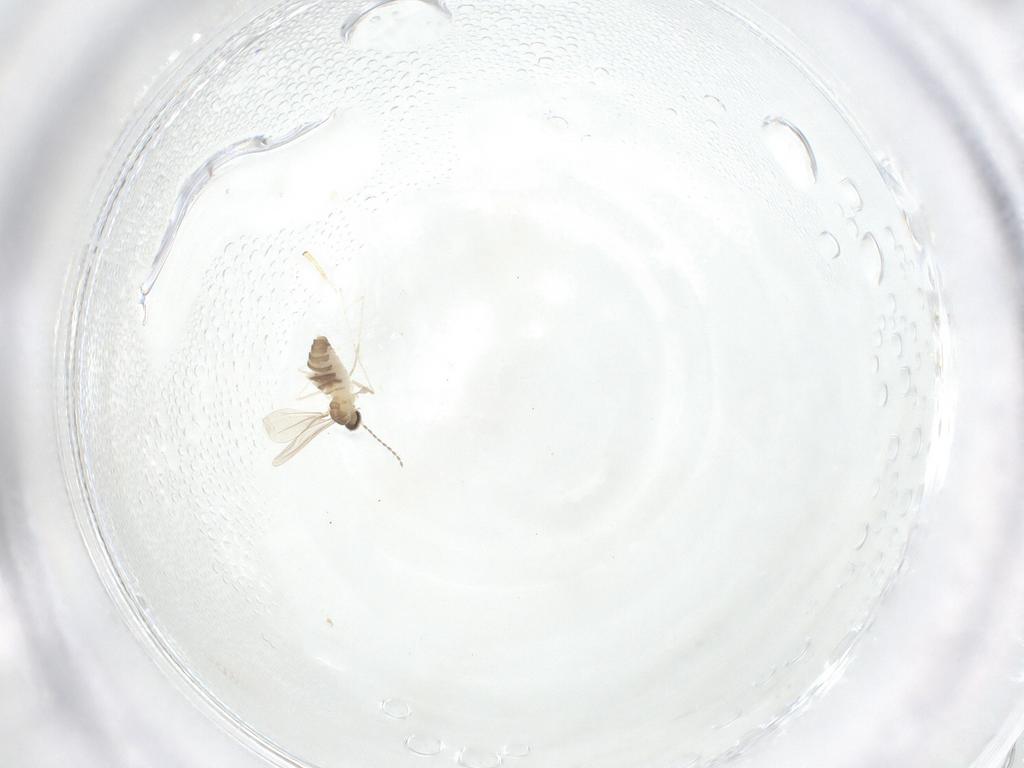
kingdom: Animalia
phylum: Arthropoda
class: Insecta
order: Diptera
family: Cecidomyiidae
